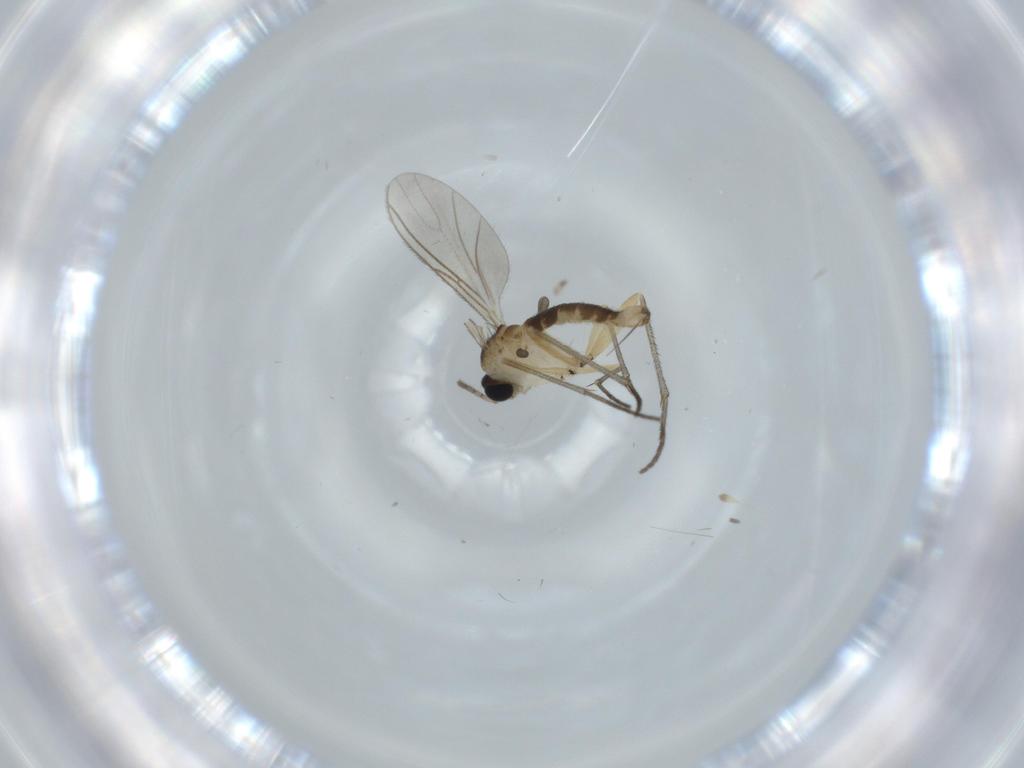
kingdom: Animalia
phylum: Arthropoda
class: Insecta
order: Diptera
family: Sciaridae
